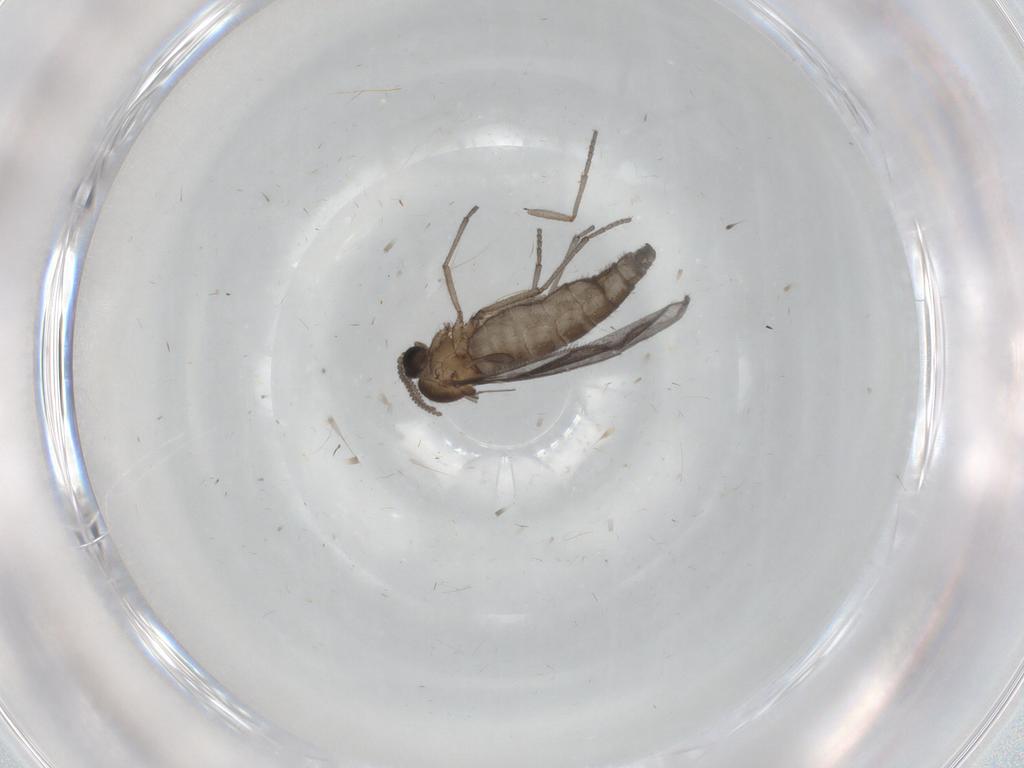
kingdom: Animalia
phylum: Arthropoda
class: Insecta
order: Diptera
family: Sciaridae
